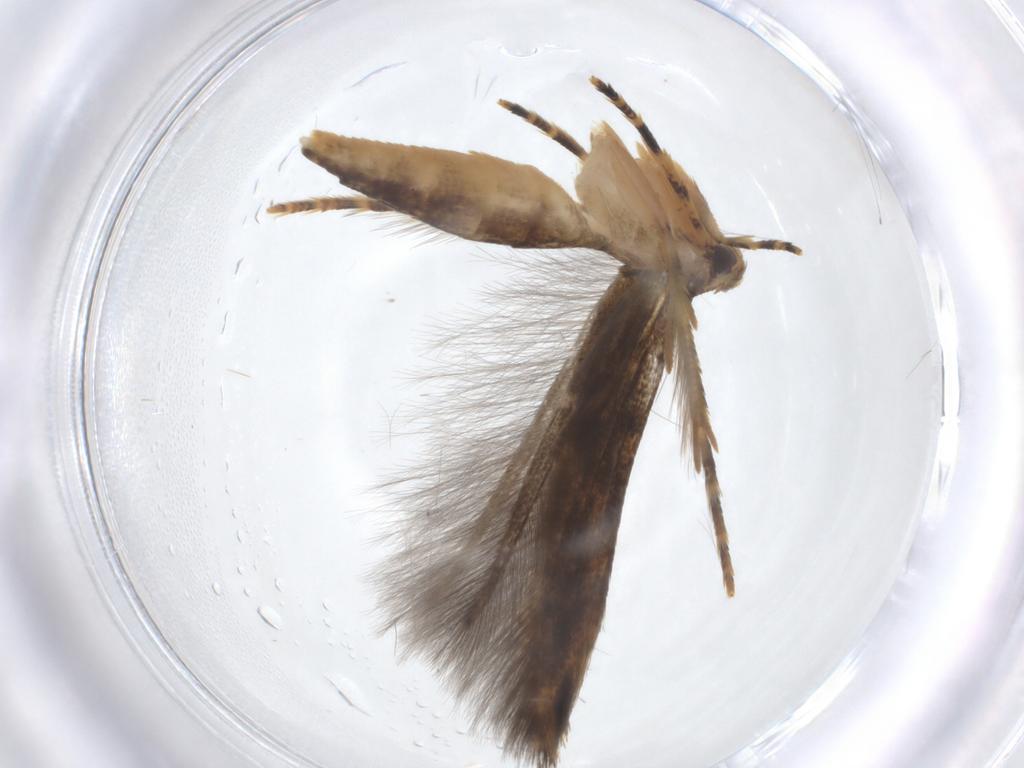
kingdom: Animalia
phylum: Arthropoda
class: Insecta
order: Lepidoptera
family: Erebidae
